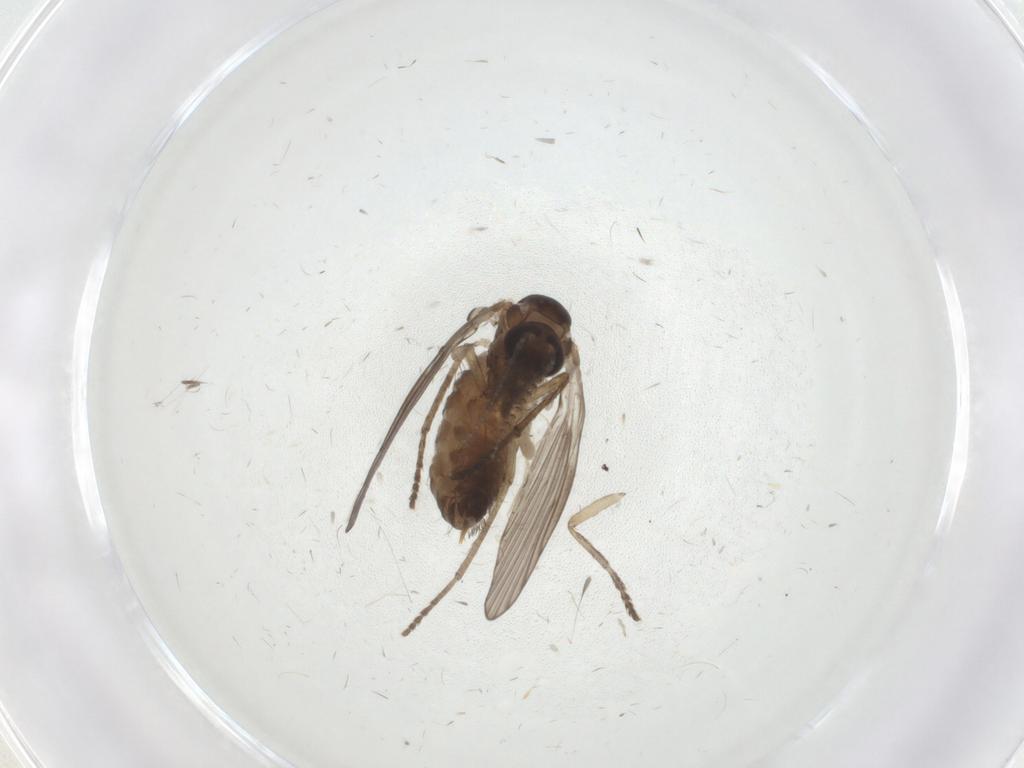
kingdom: Animalia
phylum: Arthropoda
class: Insecta
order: Diptera
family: Psychodidae
